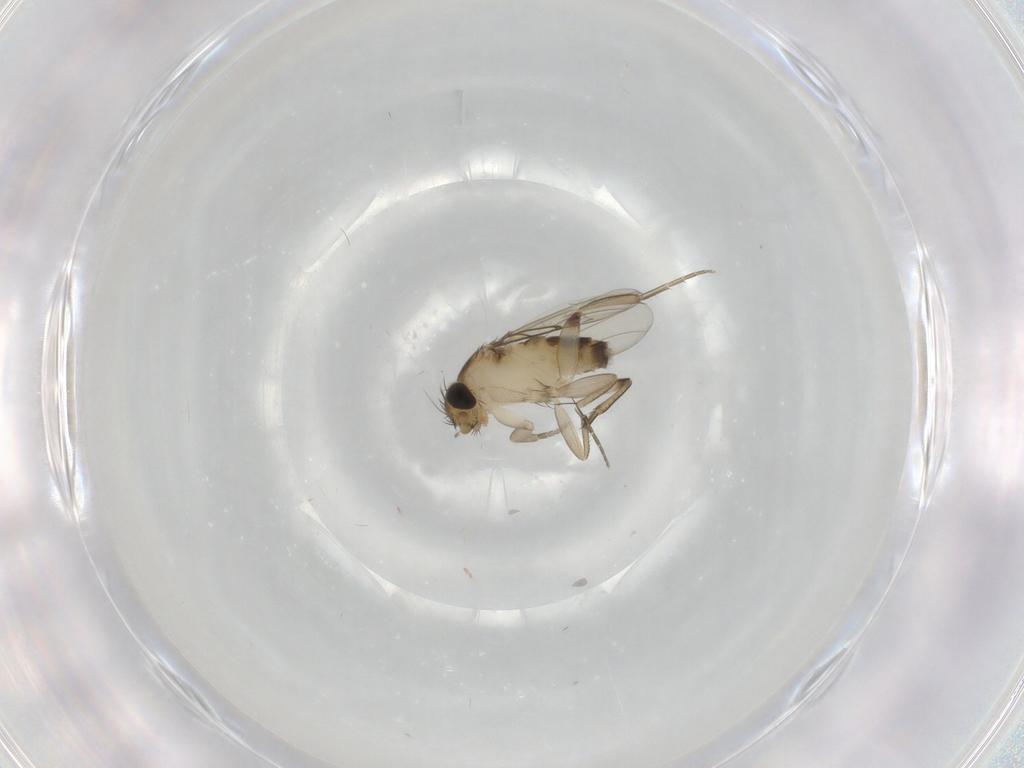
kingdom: Animalia
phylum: Arthropoda
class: Insecta
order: Diptera
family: Phoridae
